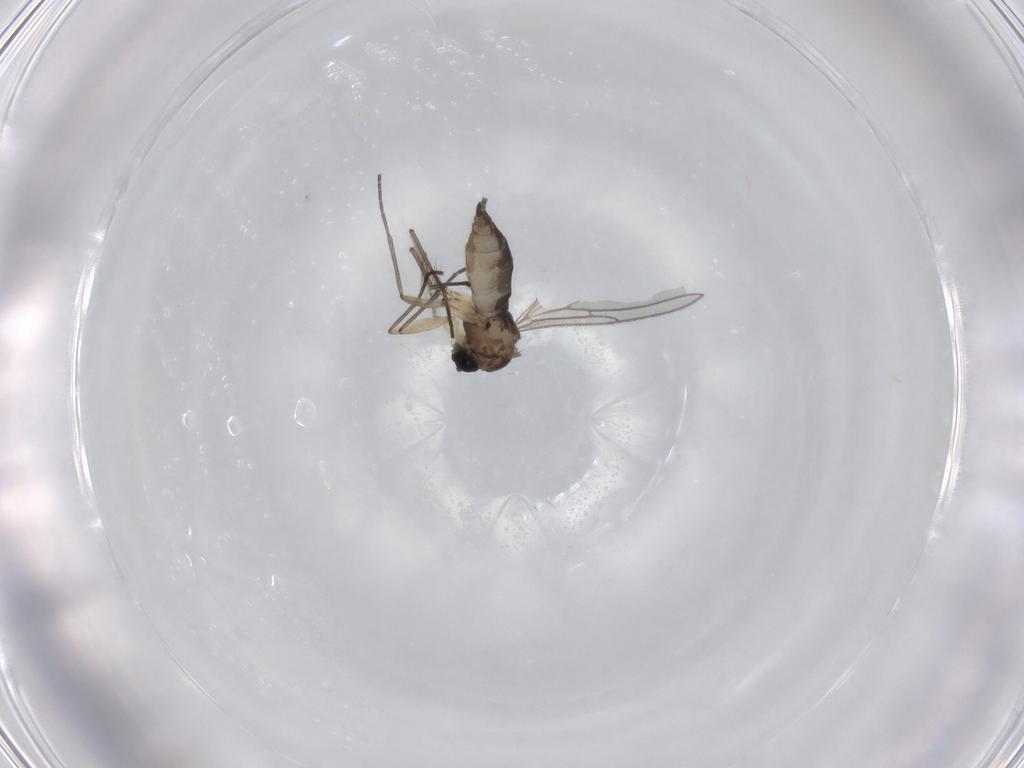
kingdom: Animalia
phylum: Arthropoda
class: Insecta
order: Diptera
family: Sciaridae
